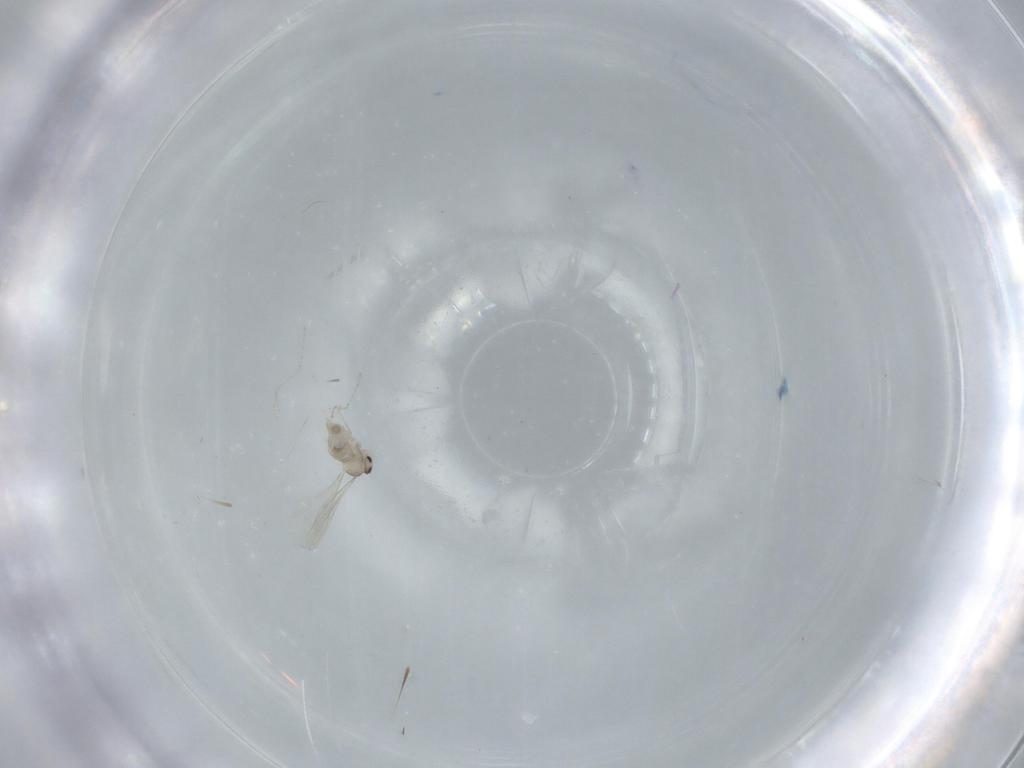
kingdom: Animalia
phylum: Arthropoda
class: Insecta
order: Diptera
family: Cecidomyiidae
